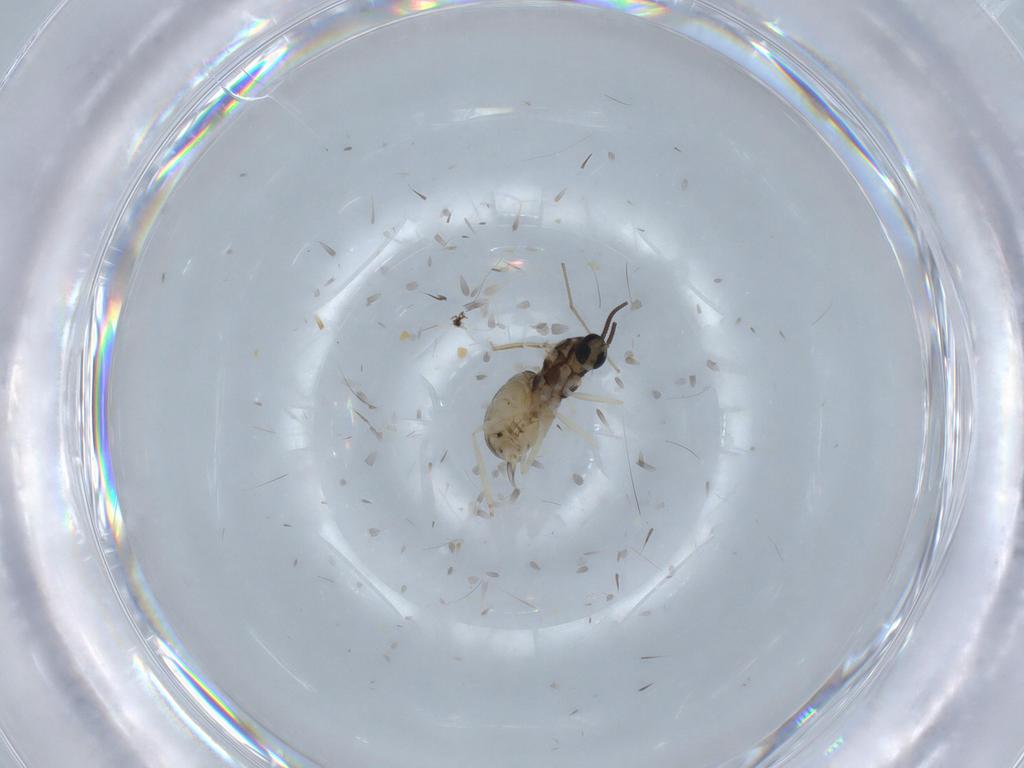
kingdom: Animalia
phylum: Arthropoda
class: Insecta
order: Diptera
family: Cecidomyiidae
